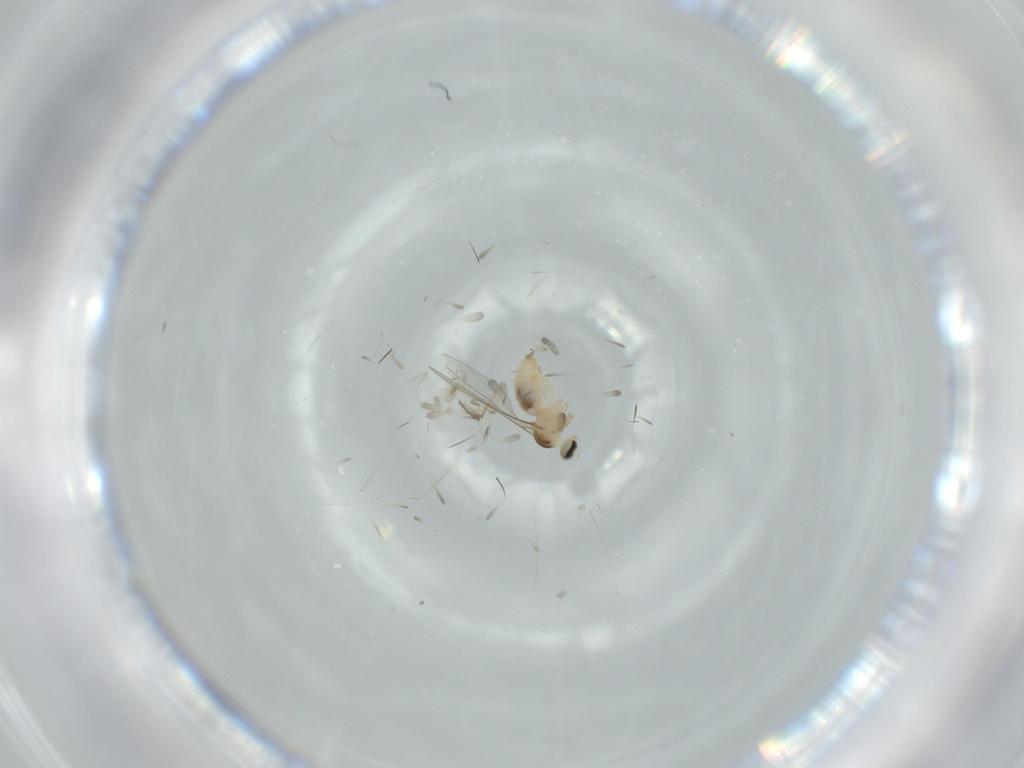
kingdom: Animalia
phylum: Arthropoda
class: Insecta
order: Diptera
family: Cecidomyiidae
